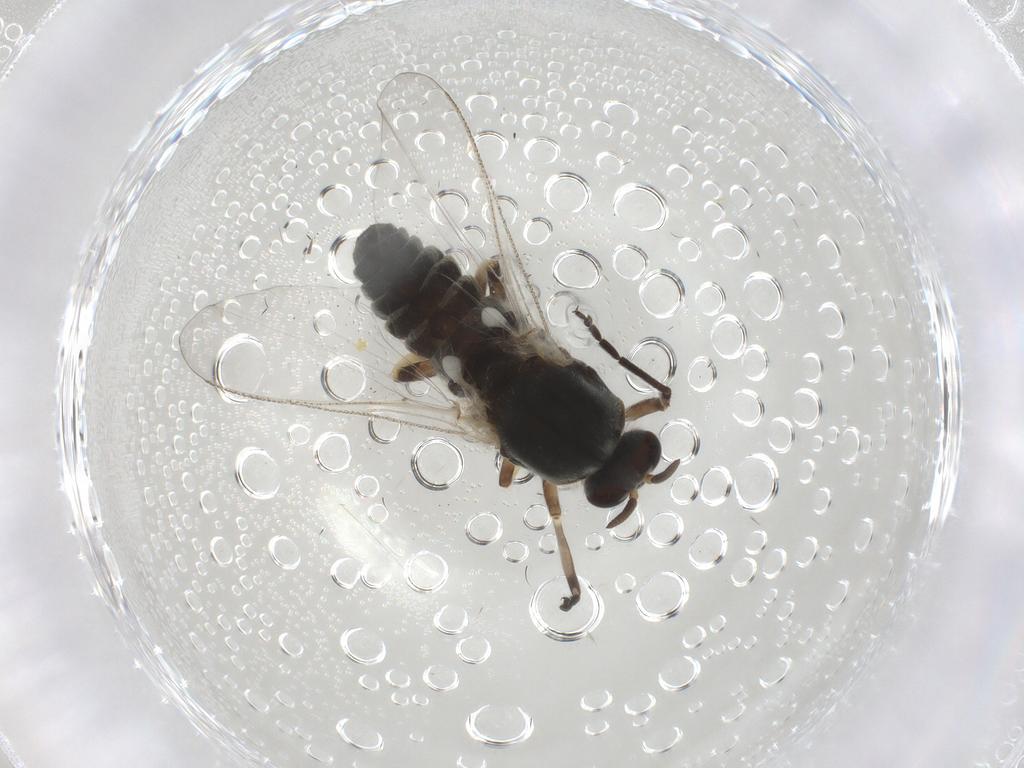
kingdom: Animalia
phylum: Arthropoda
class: Insecta
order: Diptera
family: Simuliidae
